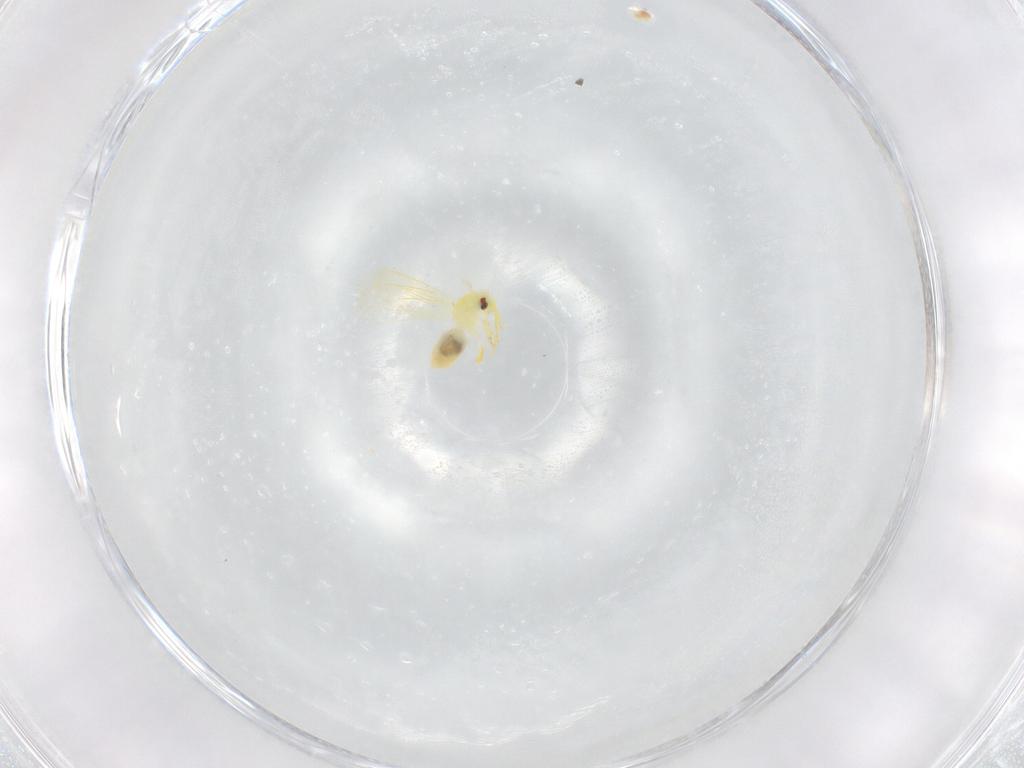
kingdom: Animalia
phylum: Arthropoda
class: Insecta
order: Hemiptera
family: Aleyrodidae
